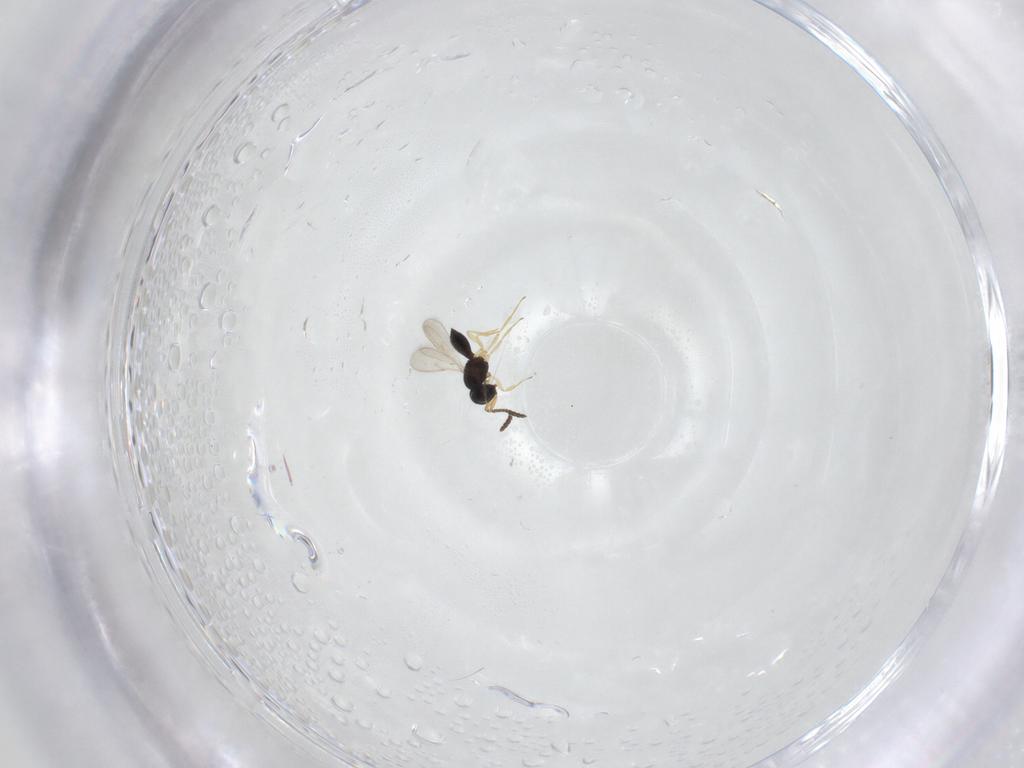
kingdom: Animalia
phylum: Arthropoda
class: Insecta
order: Hymenoptera
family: Scelionidae
